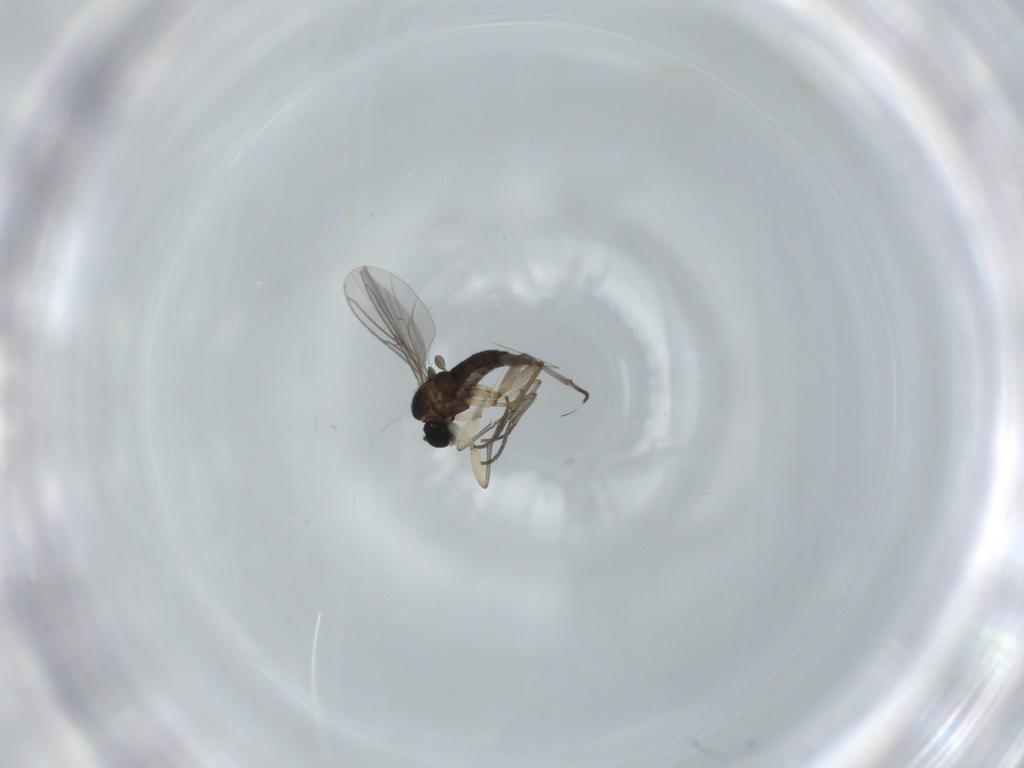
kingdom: Animalia
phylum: Arthropoda
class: Insecta
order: Diptera
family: Sciaridae
